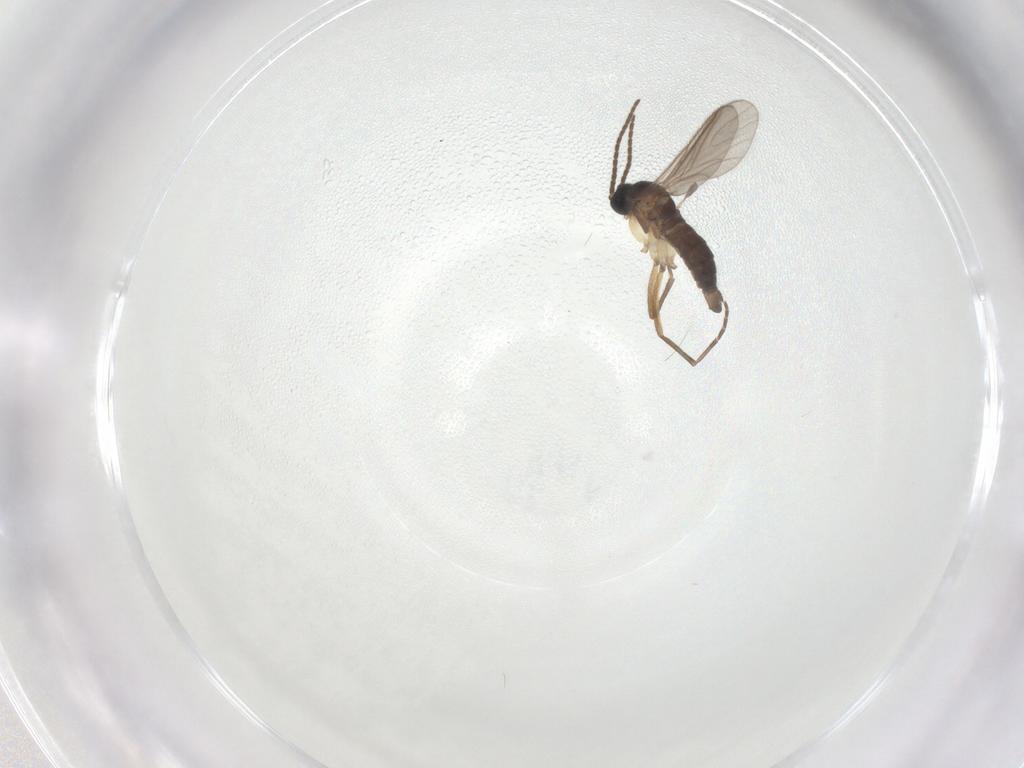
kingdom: Animalia
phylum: Arthropoda
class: Insecta
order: Diptera
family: Sciaridae
